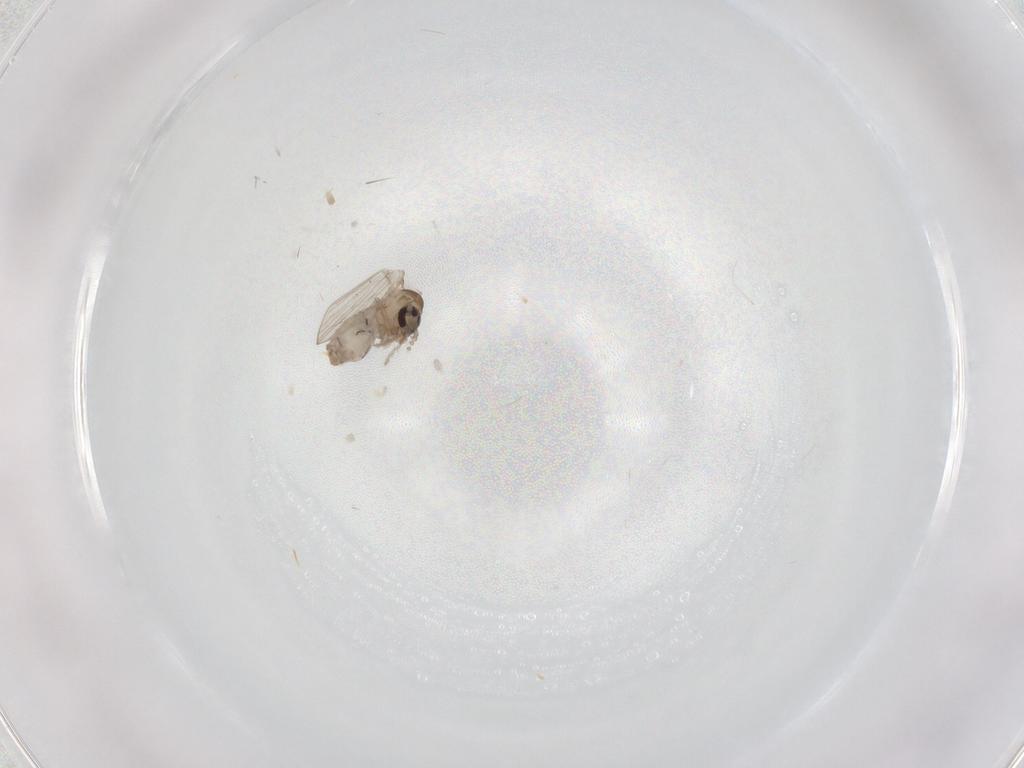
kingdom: Animalia
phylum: Arthropoda
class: Insecta
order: Diptera
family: Psychodidae
